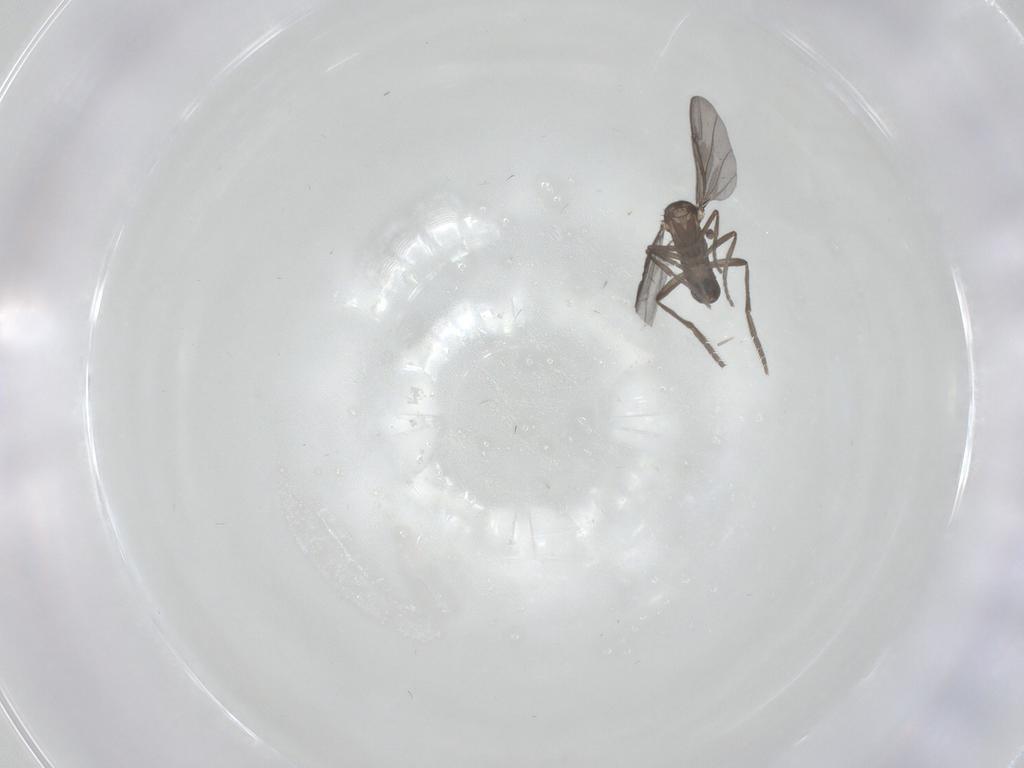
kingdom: Animalia
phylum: Arthropoda
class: Insecta
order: Diptera
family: Phoridae
